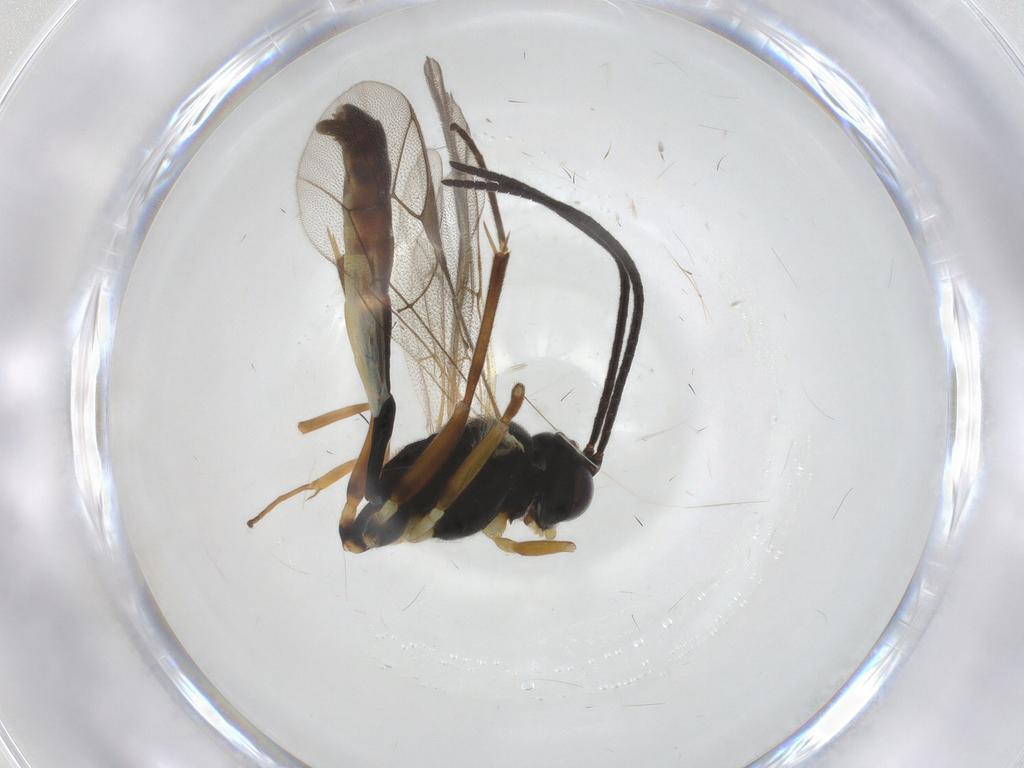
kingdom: Animalia
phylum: Arthropoda
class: Insecta
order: Hymenoptera
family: Ichneumonidae
